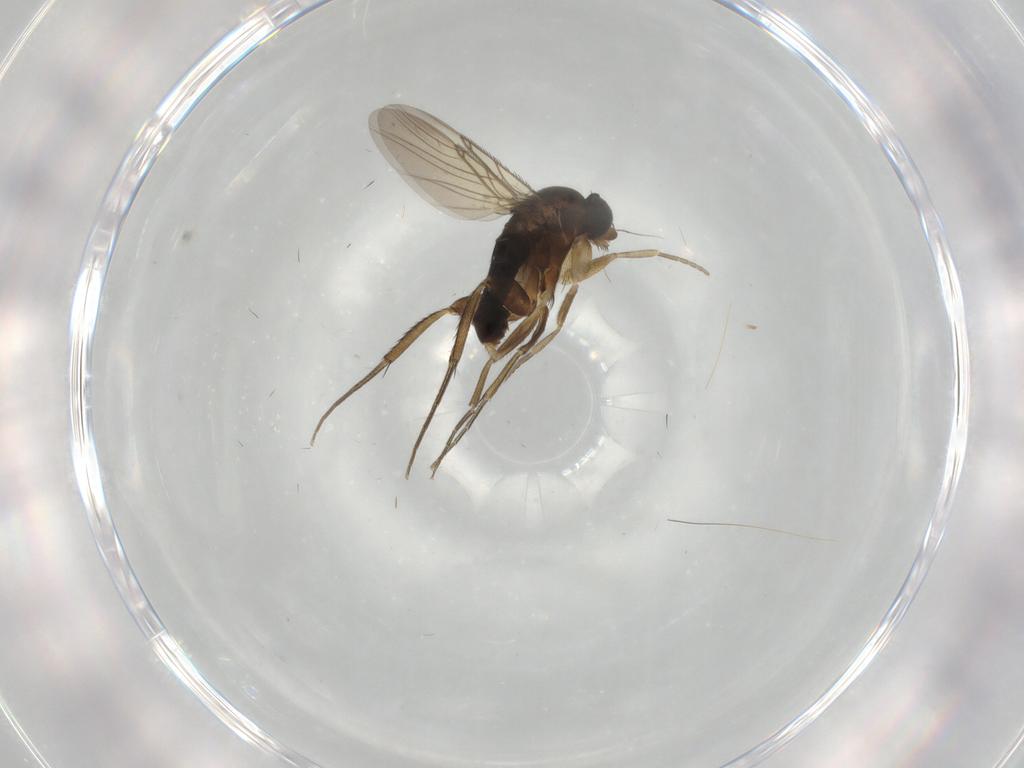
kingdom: Animalia
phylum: Arthropoda
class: Insecta
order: Diptera
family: Phoridae
